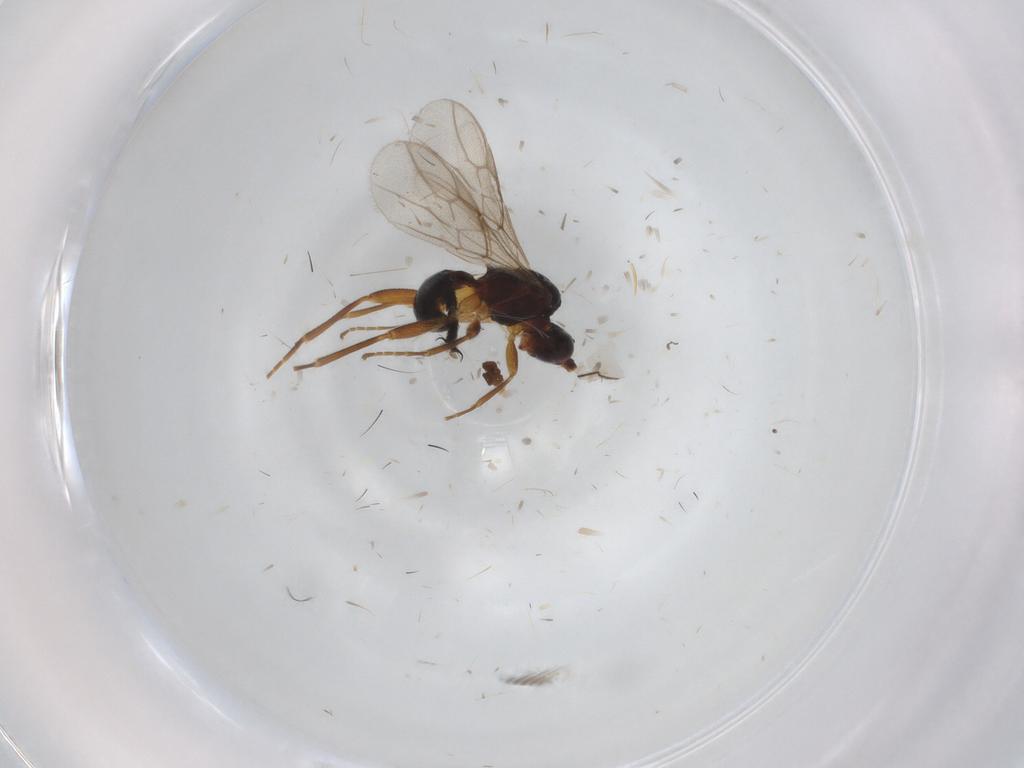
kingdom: Animalia
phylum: Arthropoda
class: Insecta
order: Hymenoptera
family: Braconidae
